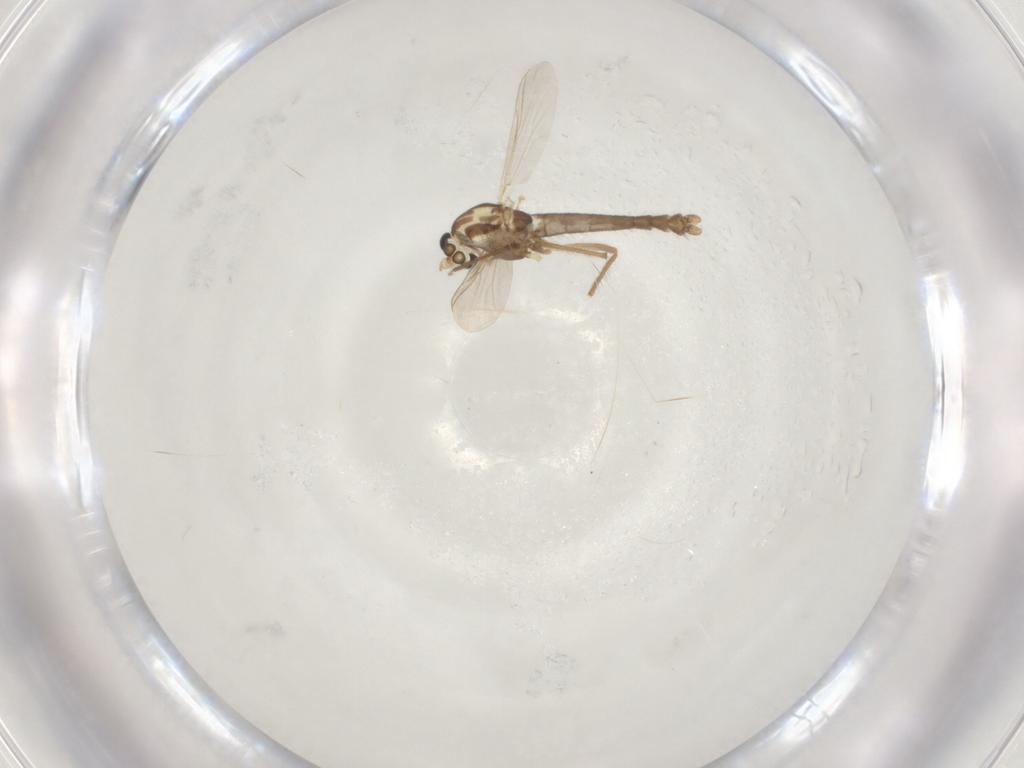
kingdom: Animalia
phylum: Arthropoda
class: Insecta
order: Diptera
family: Chironomidae
